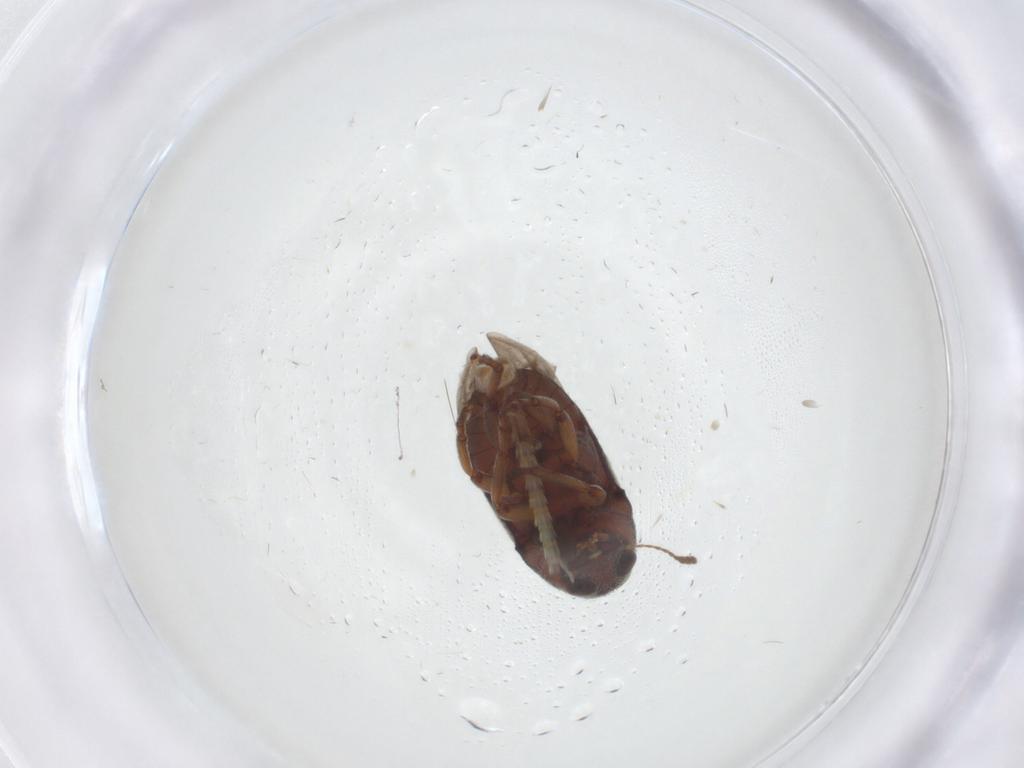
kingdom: Animalia
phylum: Arthropoda
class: Insecta
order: Coleoptera
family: Anthribidae
